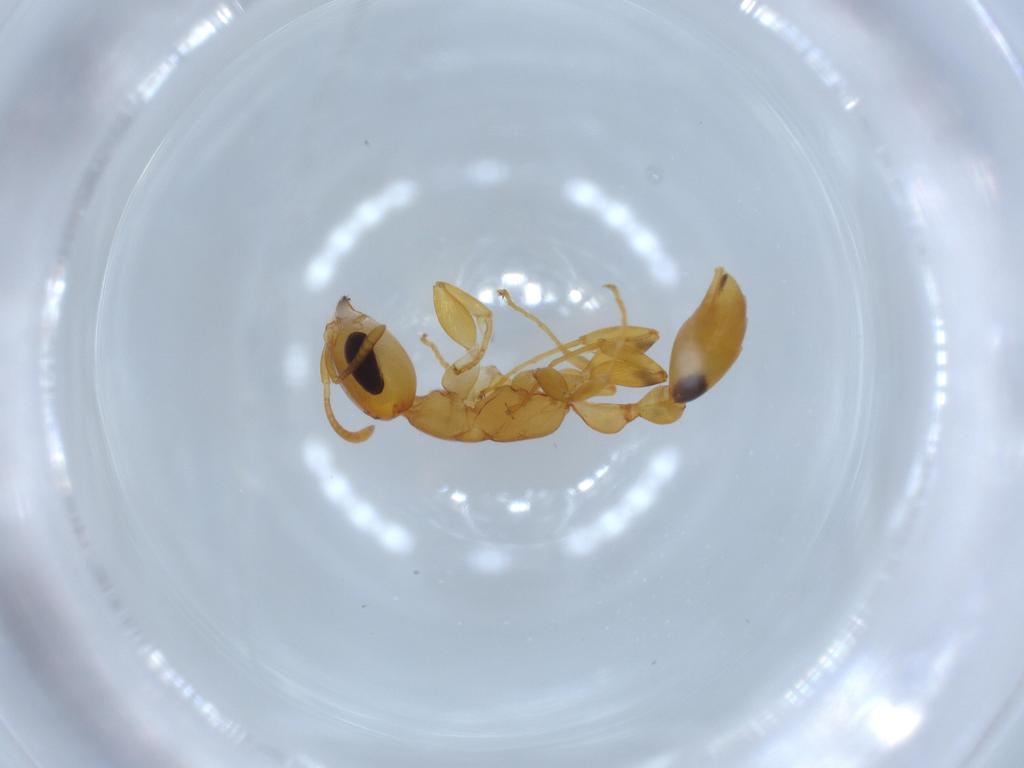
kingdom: Animalia
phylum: Arthropoda
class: Insecta
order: Hymenoptera
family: Formicidae
